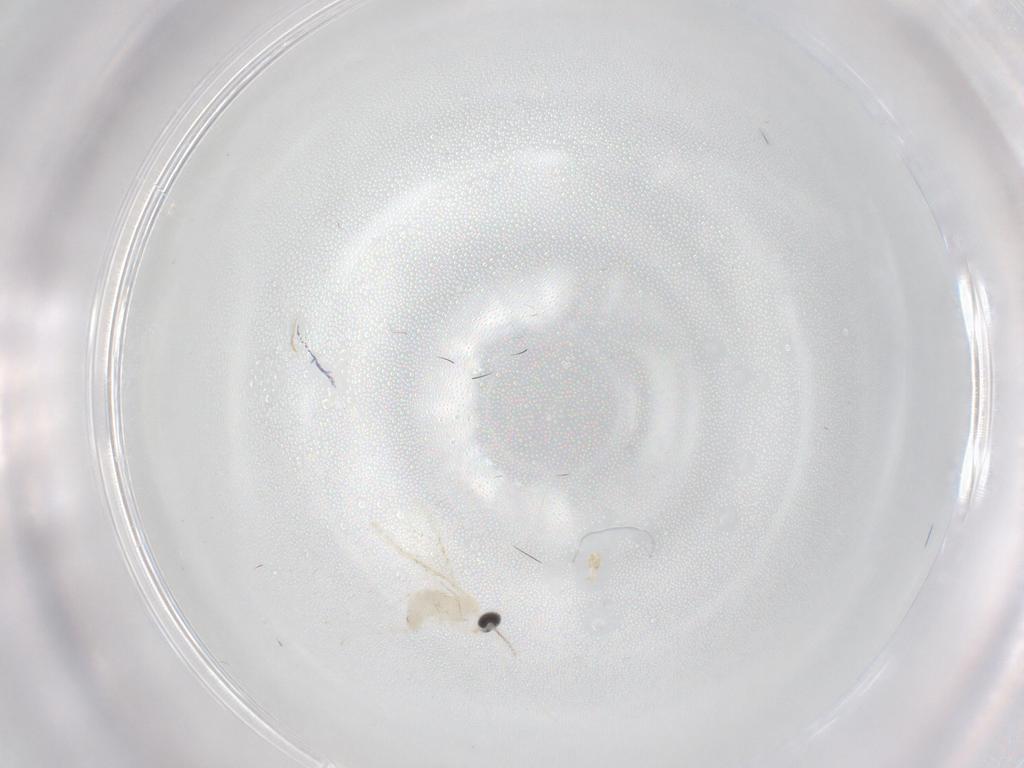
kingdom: Animalia
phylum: Arthropoda
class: Insecta
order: Diptera
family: Cecidomyiidae
